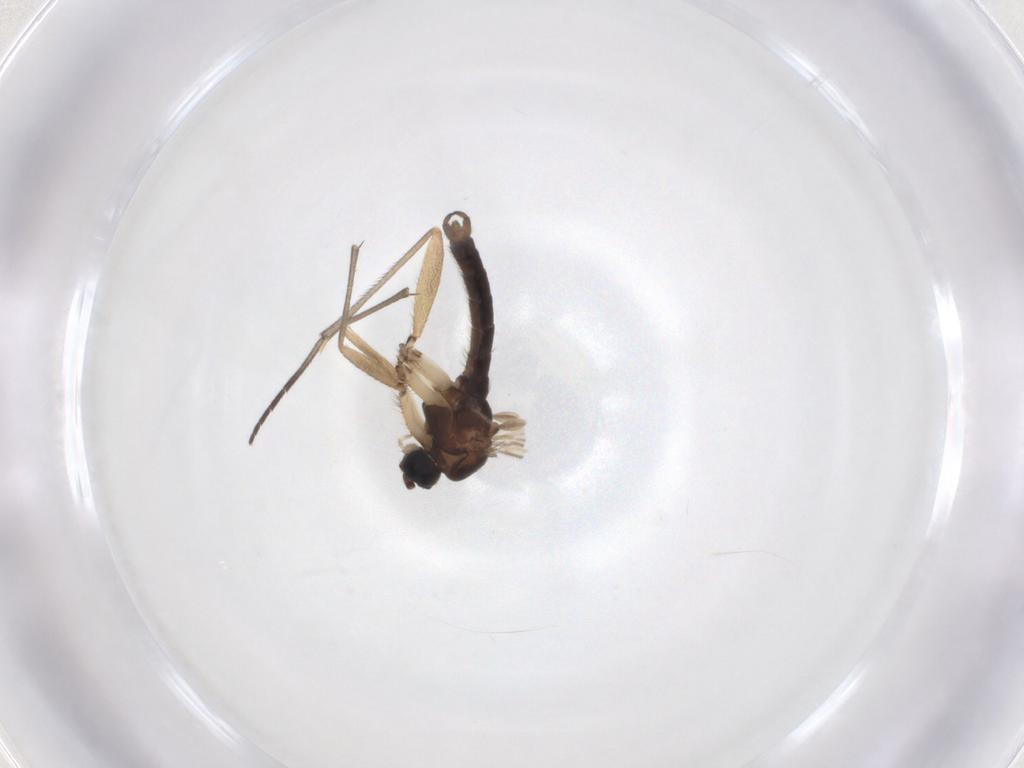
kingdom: Animalia
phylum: Arthropoda
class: Insecta
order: Diptera
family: Sciaridae
